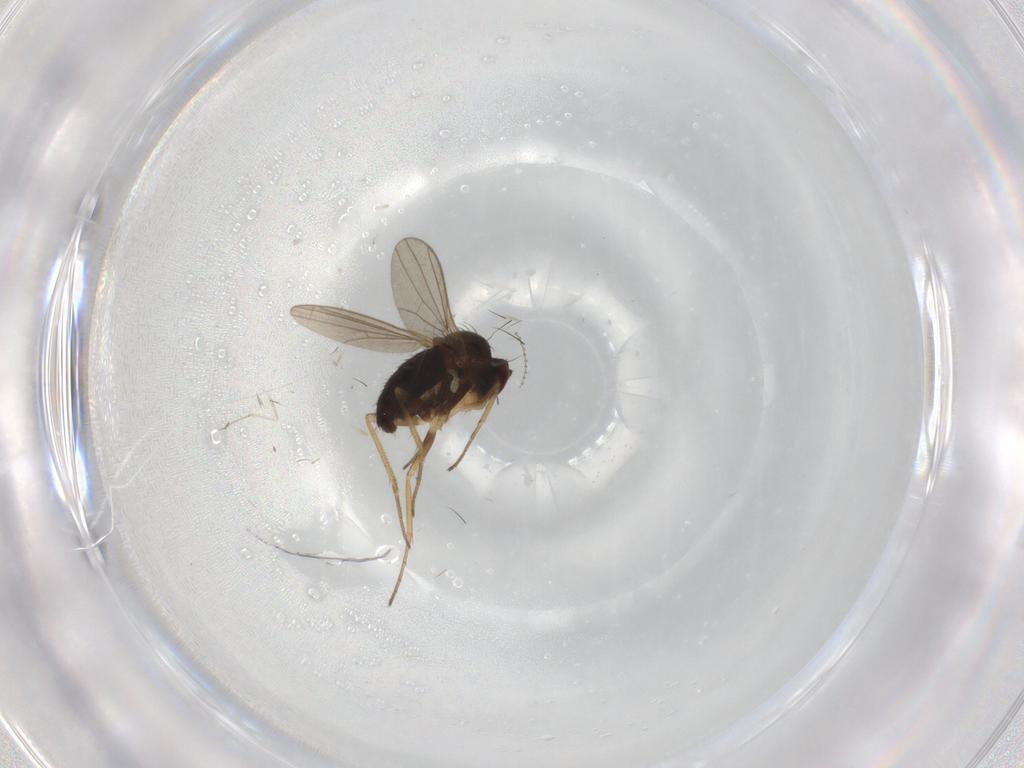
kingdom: Animalia
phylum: Arthropoda
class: Insecta
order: Diptera
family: Dolichopodidae
